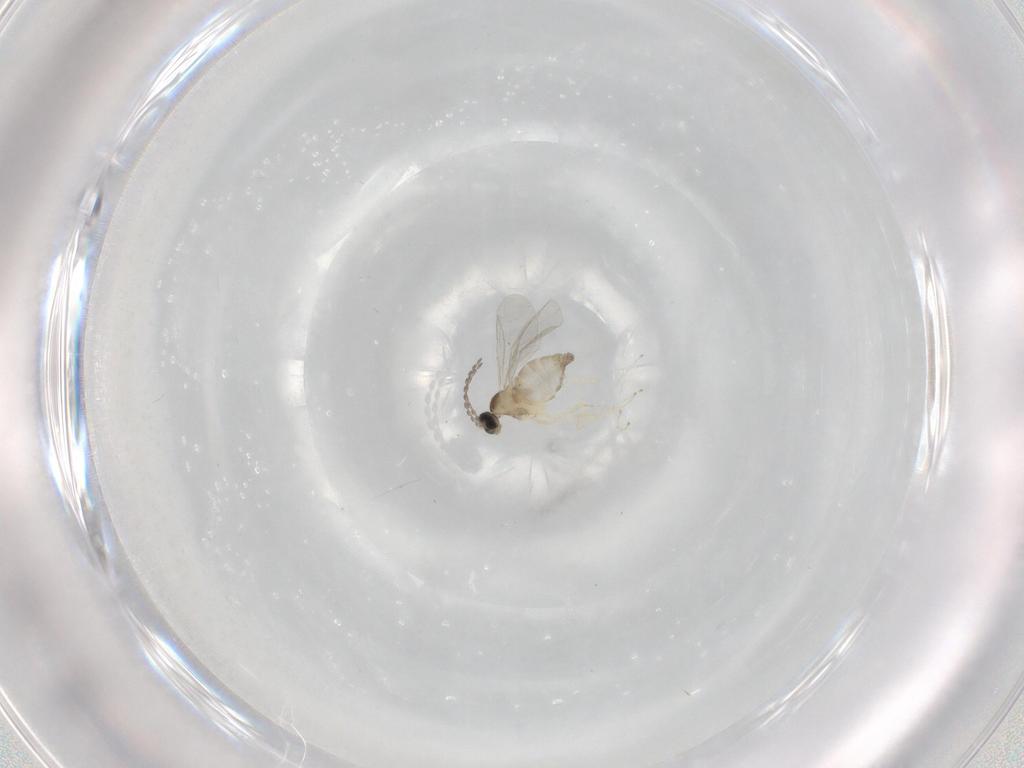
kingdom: Animalia
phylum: Arthropoda
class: Insecta
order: Diptera
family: Cecidomyiidae
